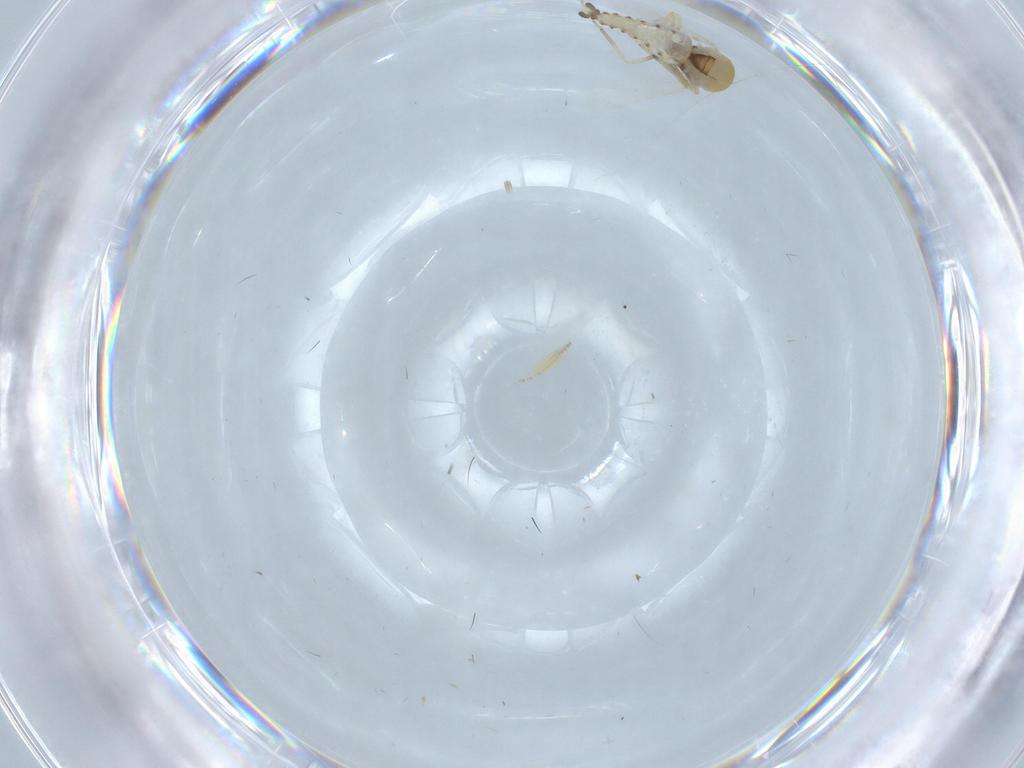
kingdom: Animalia
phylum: Arthropoda
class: Insecta
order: Diptera
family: Ceratopogonidae
